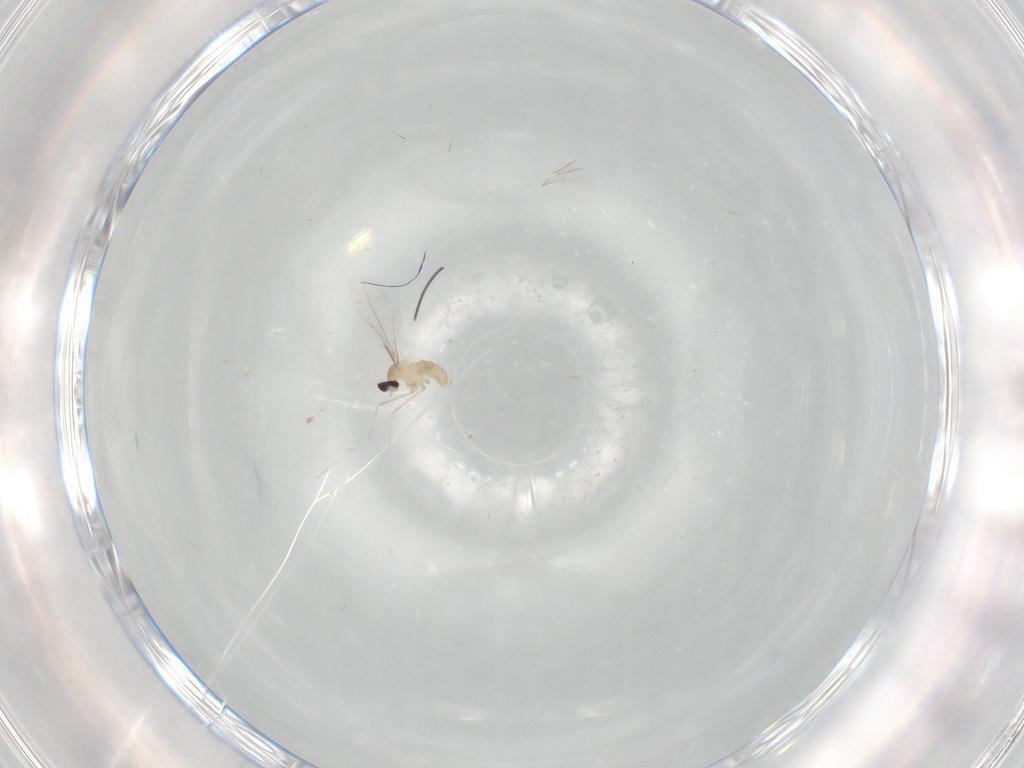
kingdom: Animalia
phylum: Arthropoda
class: Insecta
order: Diptera
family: Cecidomyiidae
